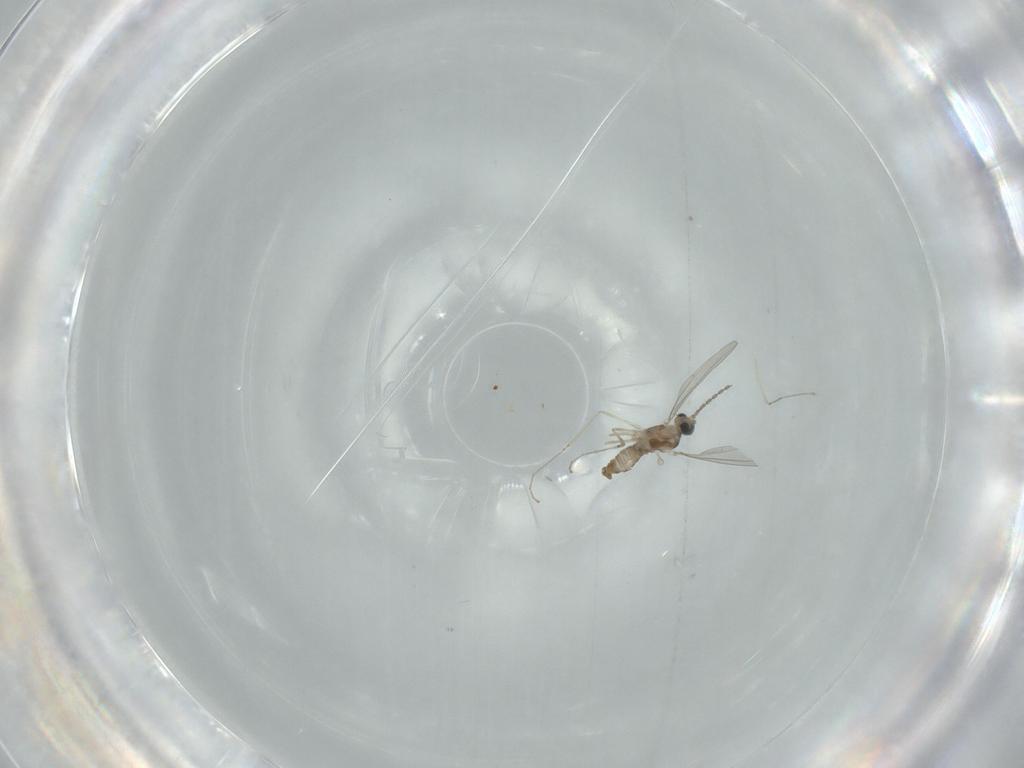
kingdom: Animalia
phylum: Arthropoda
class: Insecta
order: Diptera
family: Sciaridae
